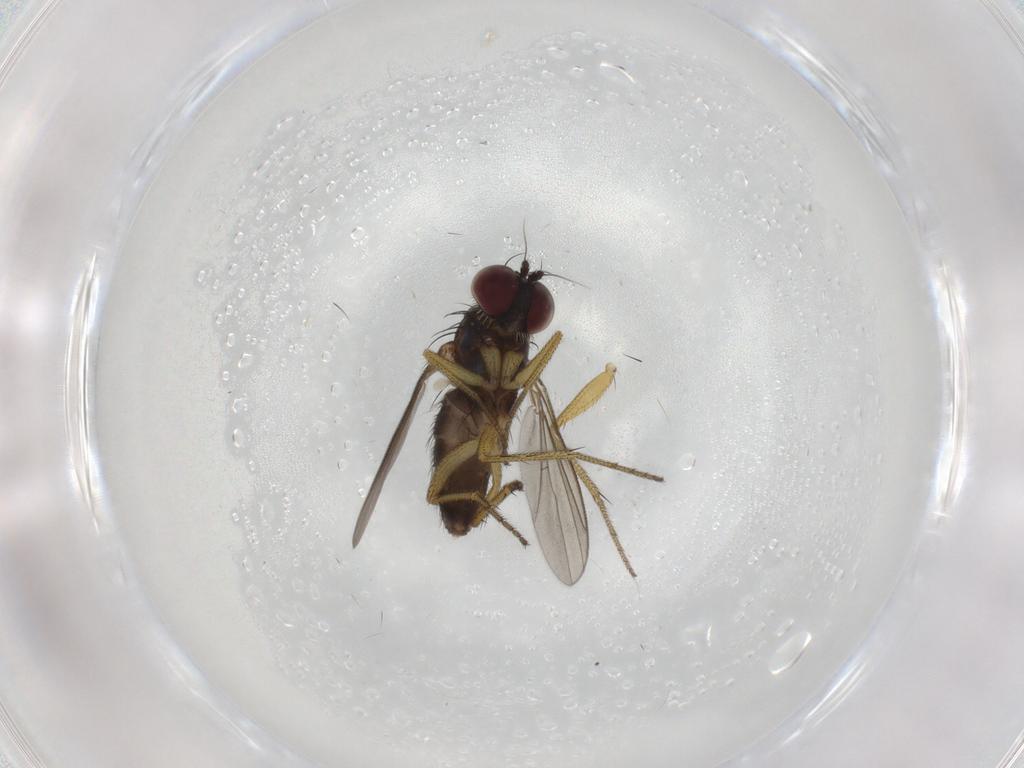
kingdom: Animalia
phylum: Arthropoda
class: Insecta
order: Diptera
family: Dolichopodidae
